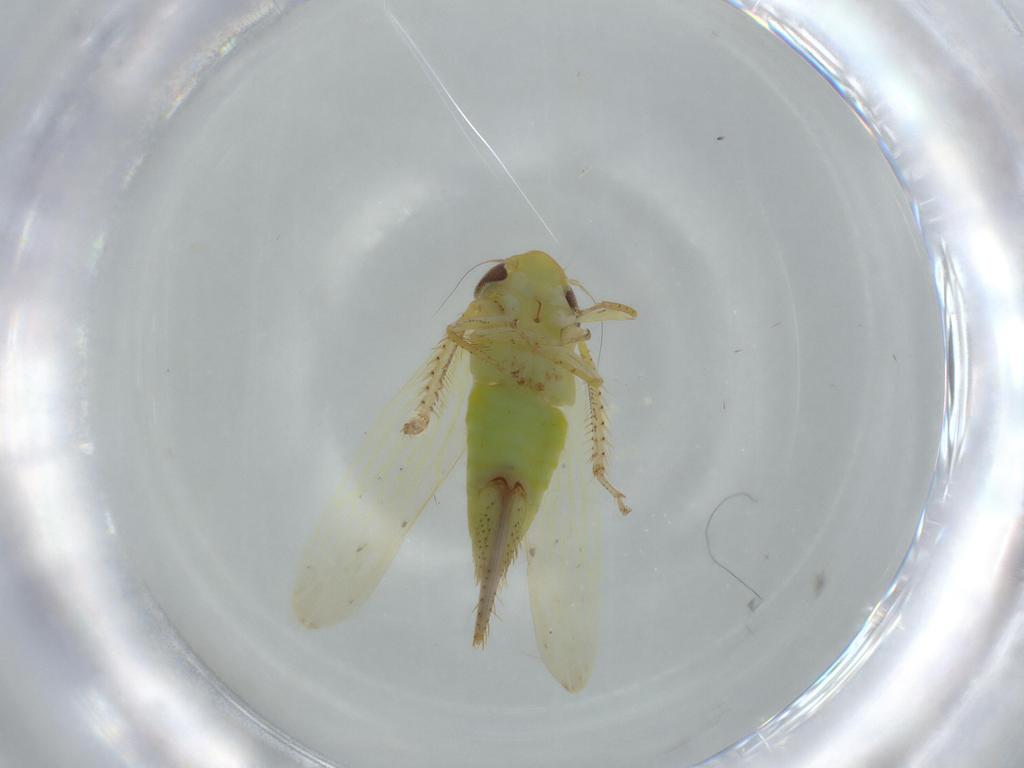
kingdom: Animalia
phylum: Arthropoda
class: Insecta
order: Hemiptera
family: Cicadellidae
